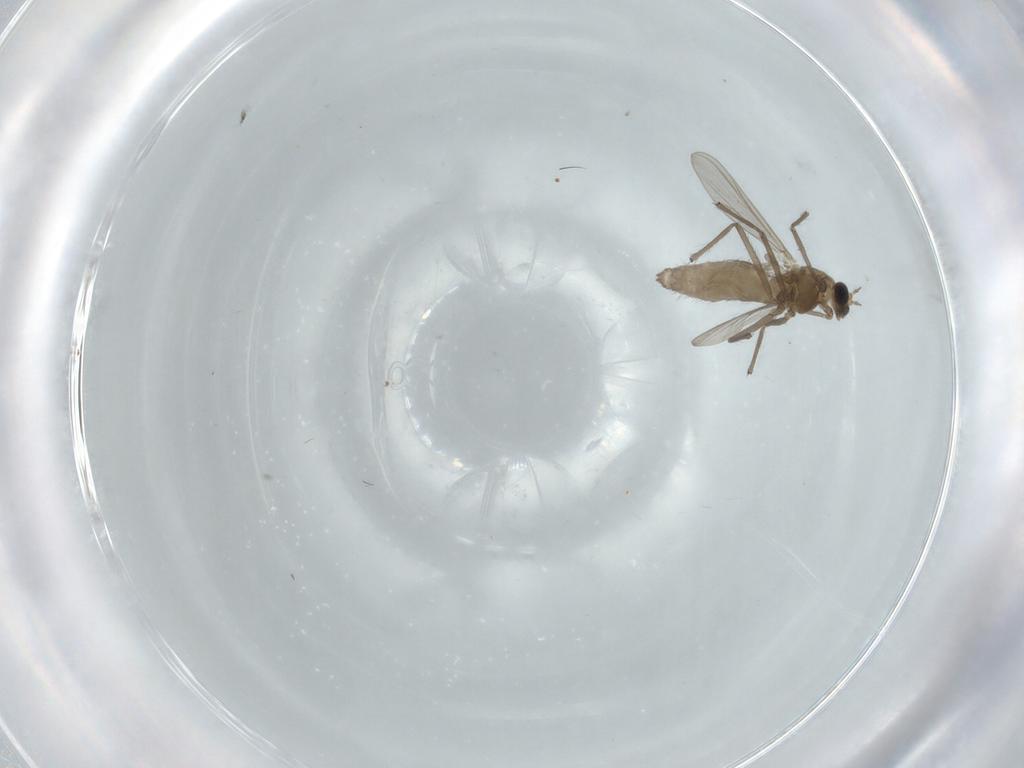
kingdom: Animalia
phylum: Arthropoda
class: Insecta
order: Diptera
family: Chironomidae
